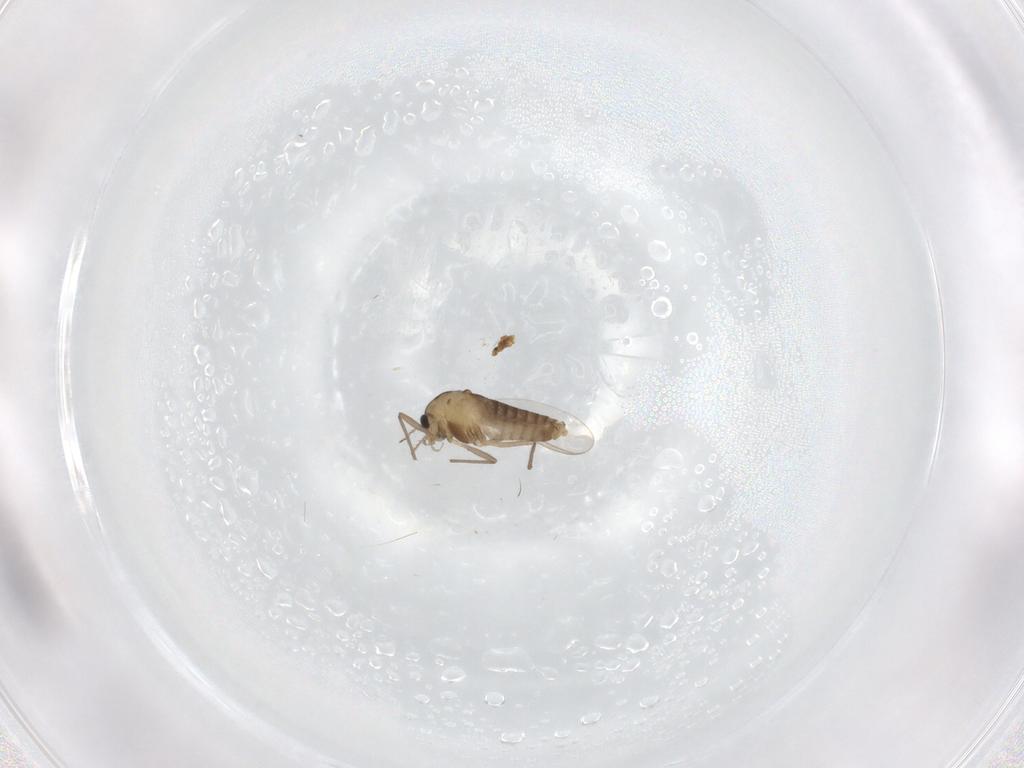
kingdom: Animalia
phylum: Arthropoda
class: Insecta
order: Diptera
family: Chironomidae
